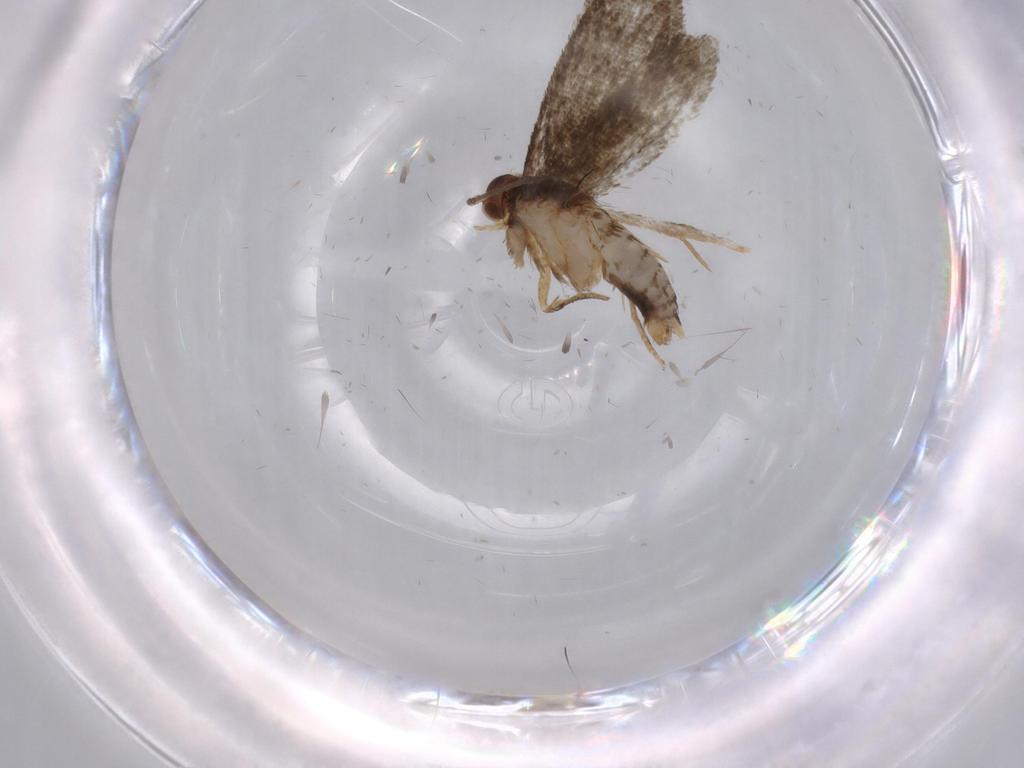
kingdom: Animalia
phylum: Arthropoda
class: Insecta
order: Lepidoptera
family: Tineidae
